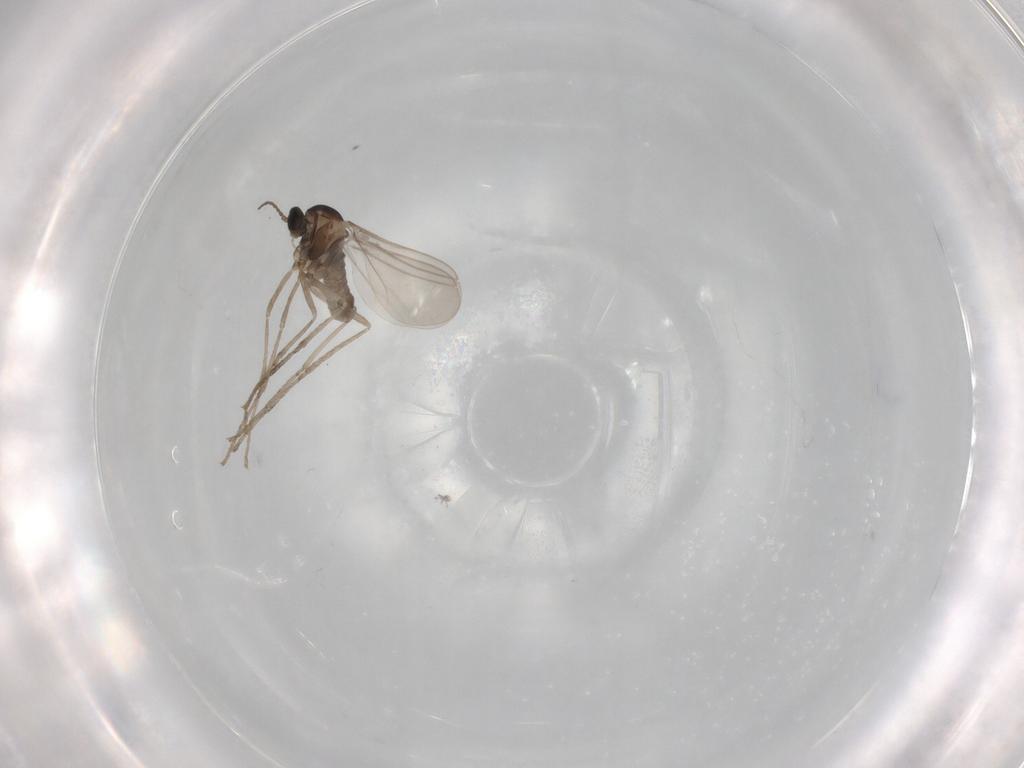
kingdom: Animalia
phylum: Arthropoda
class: Insecta
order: Diptera
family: Cecidomyiidae
